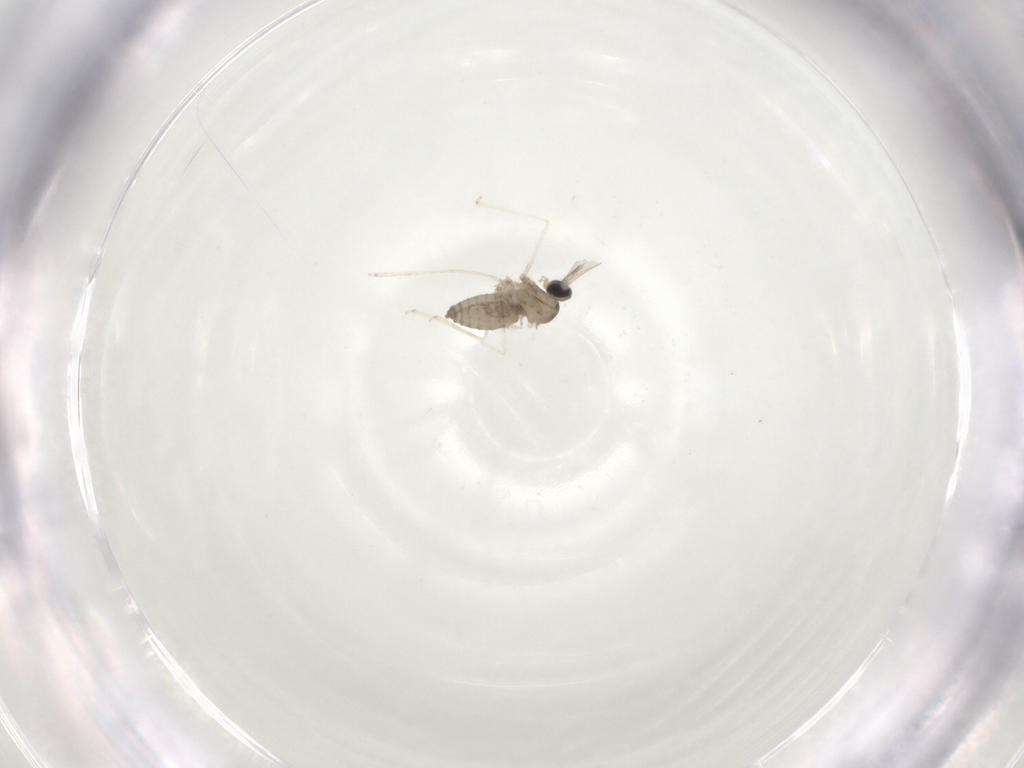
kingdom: Animalia
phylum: Arthropoda
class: Insecta
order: Diptera
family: Cecidomyiidae
